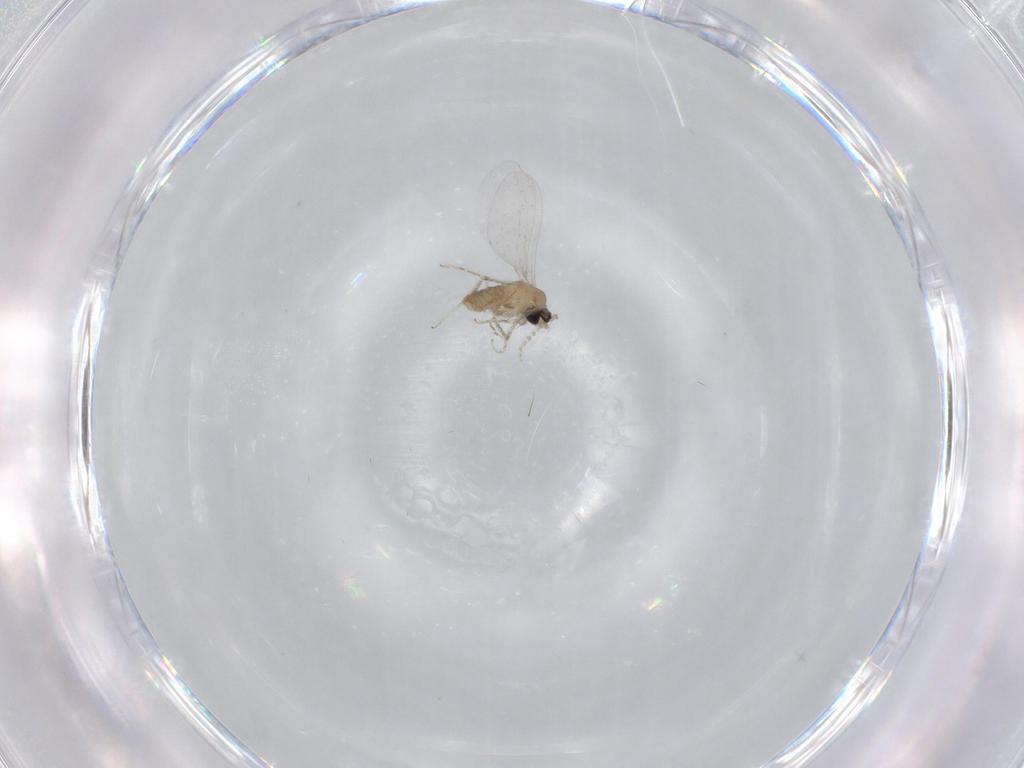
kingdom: Animalia
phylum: Arthropoda
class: Insecta
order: Diptera
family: Cecidomyiidae
